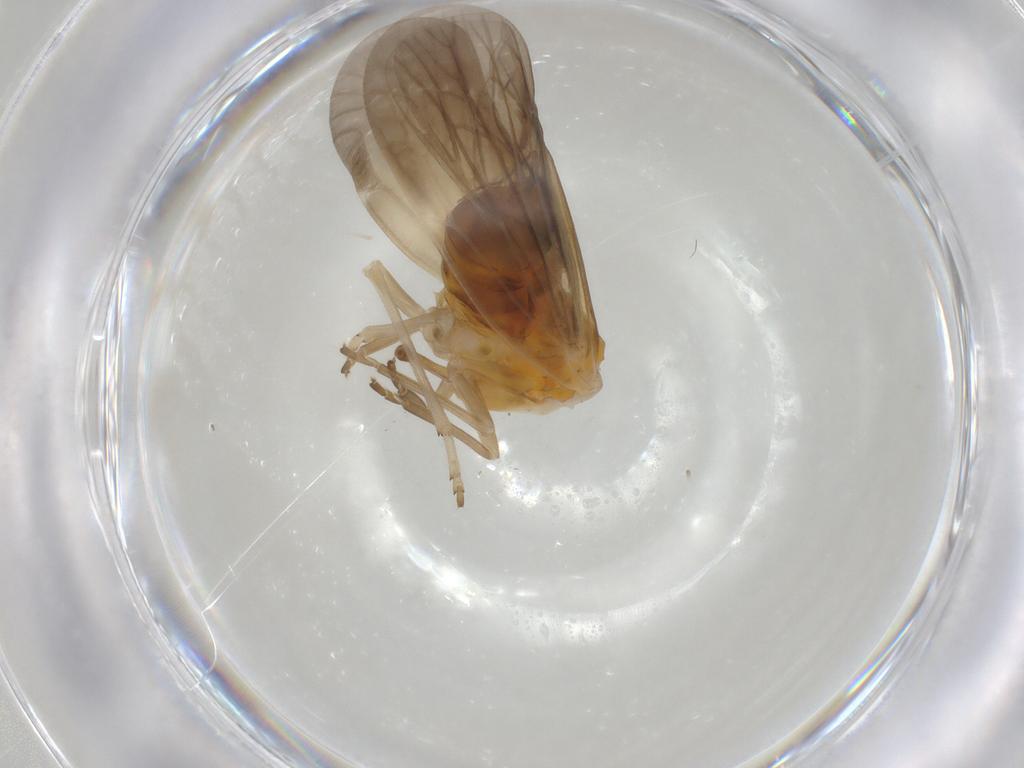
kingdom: Animalia
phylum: Arthropoda
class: Insecta
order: Hemiptera
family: Derbidae
